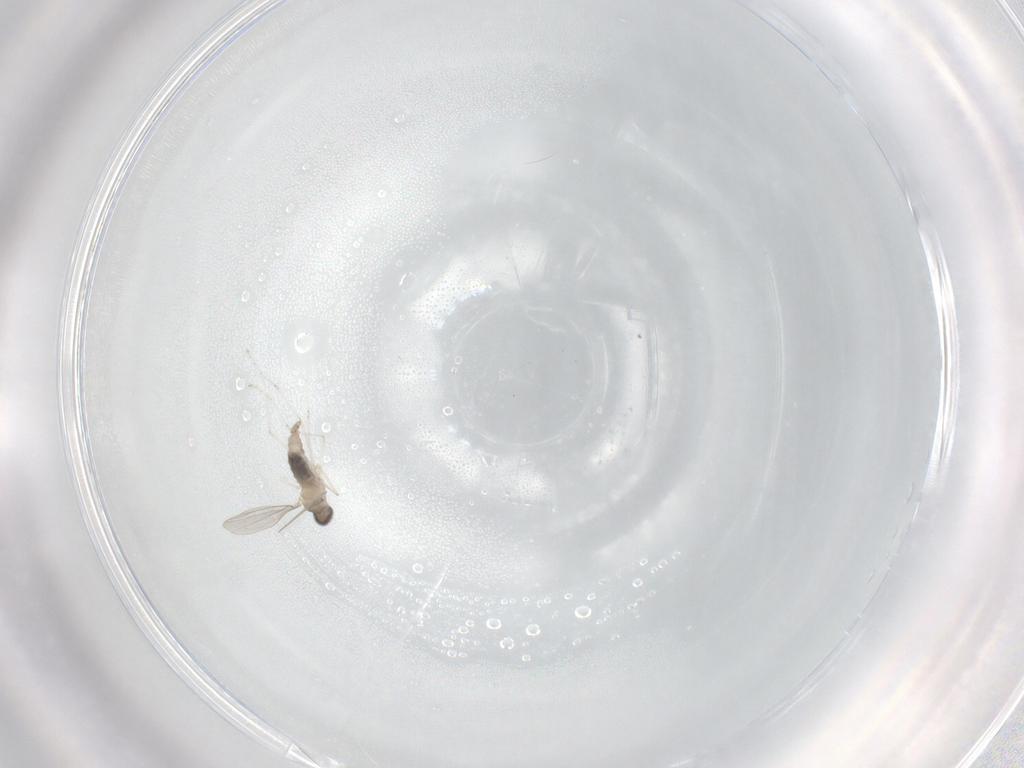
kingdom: Animalia
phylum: Arthropoda
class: Insecta
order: Diptera
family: Cecidomyiidae
